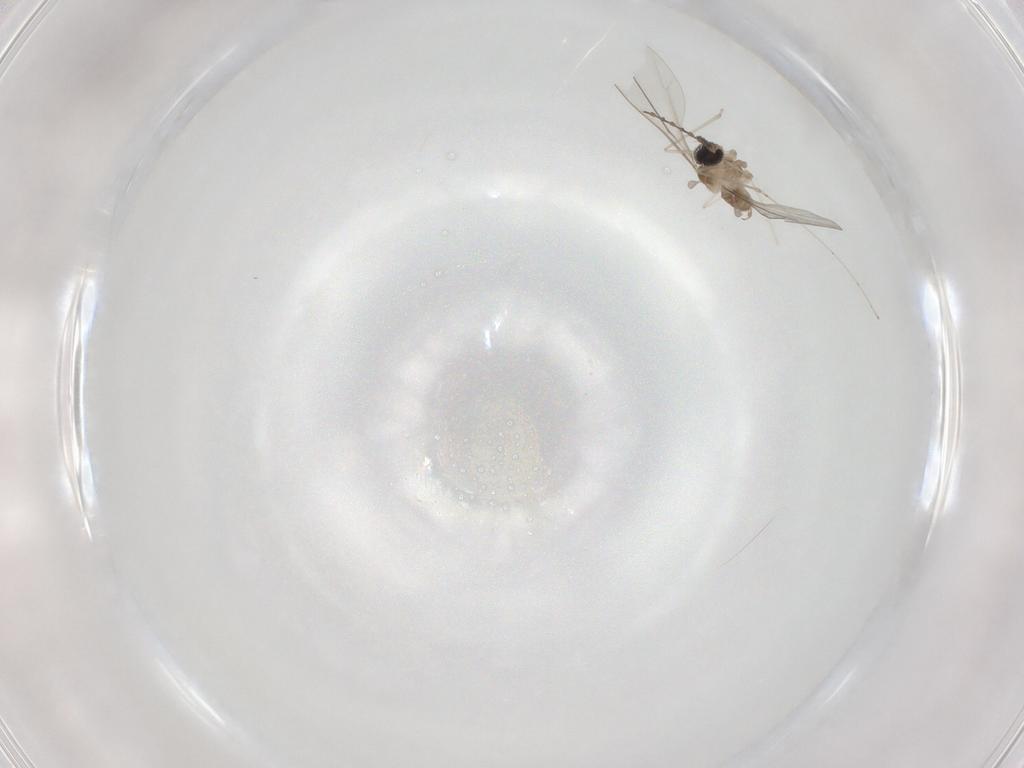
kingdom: Animalia
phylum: Arthropoda
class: Insecta
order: Diptera
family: Cecidomyiidae
